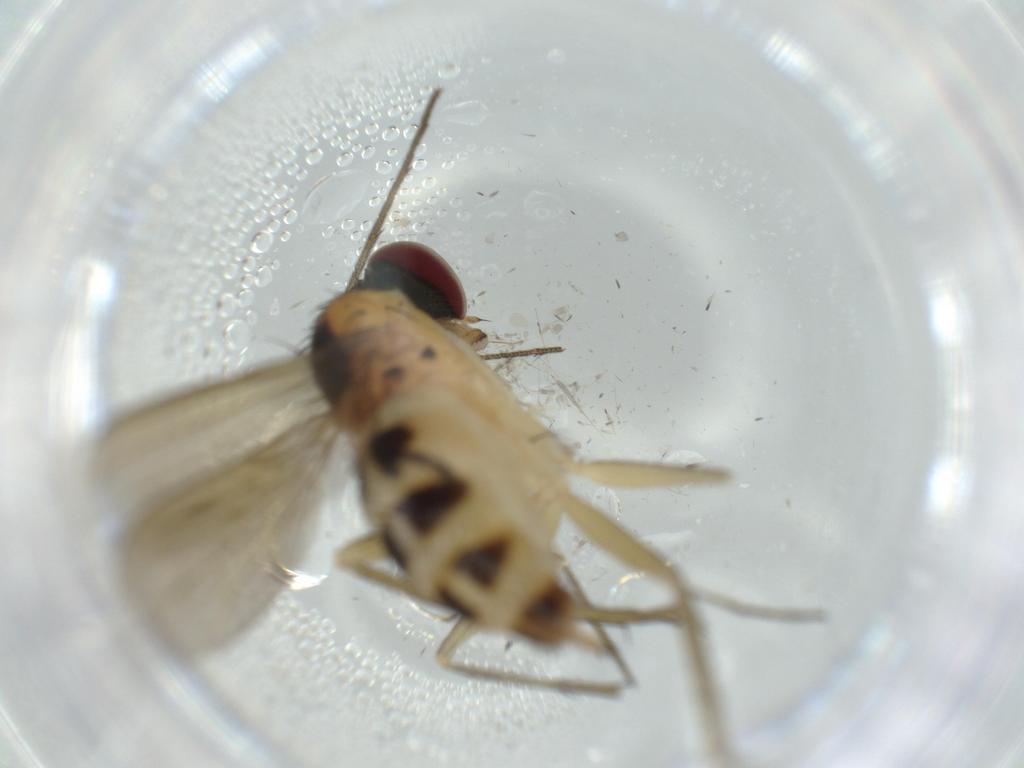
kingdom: Animalia
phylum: Arthropoda
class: Insecta
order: Diptera
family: Dolichopodidae
